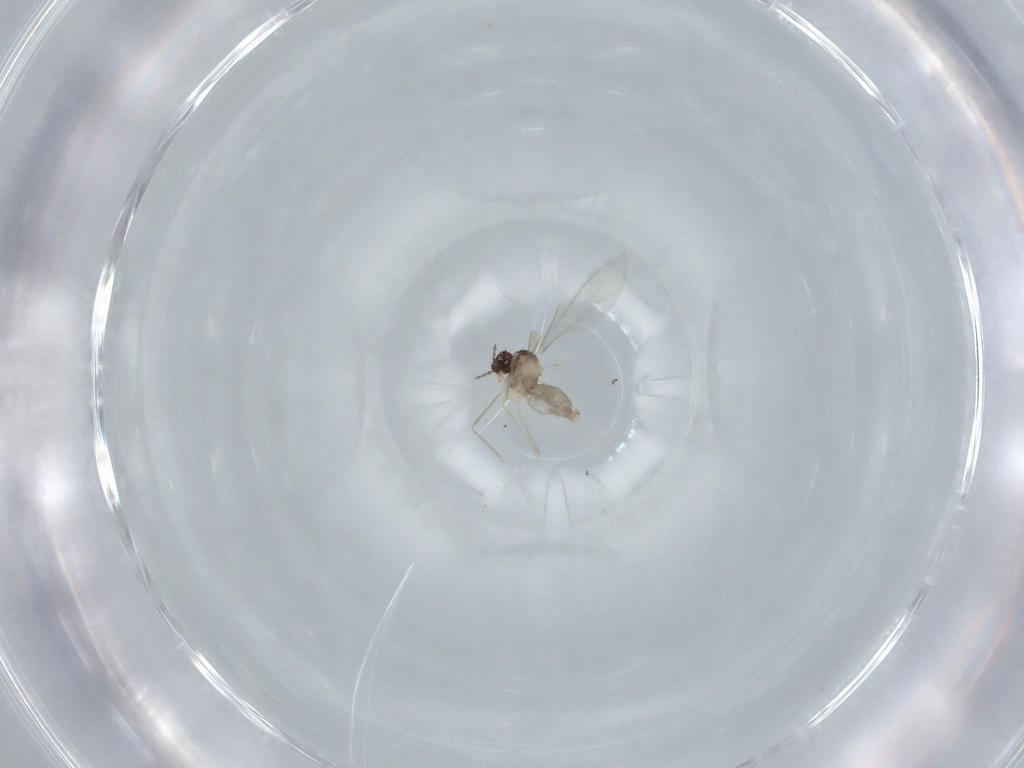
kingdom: Animalia
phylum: Arthropoda
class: Insecta
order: Diptera
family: Cecidomyiidae
